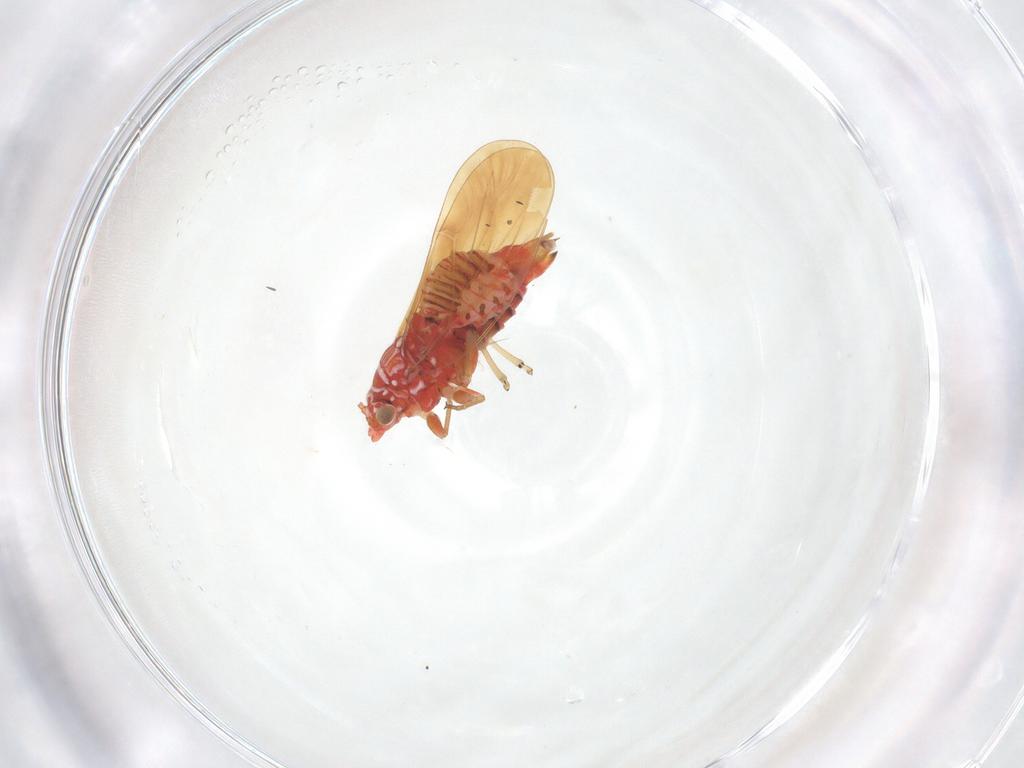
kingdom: Animalia
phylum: Arthropoda
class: Insecta
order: Hemiptera
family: Psyllidae
